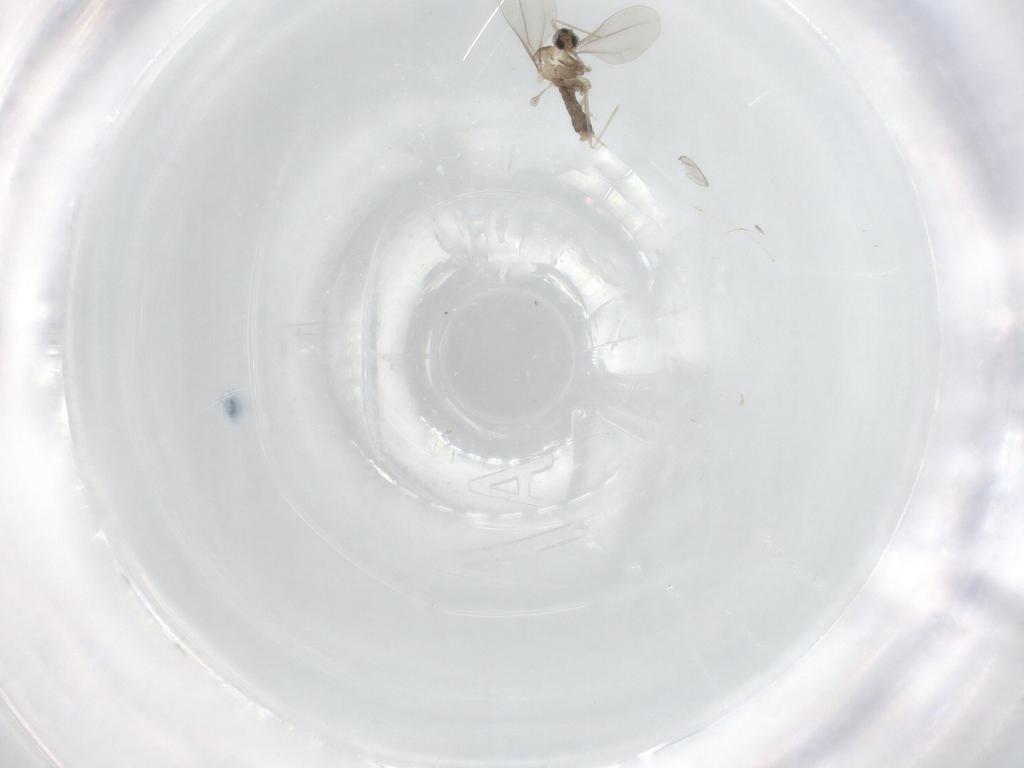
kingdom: Animalia
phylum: Arthropoda
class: Insecta
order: Diptera
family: Cecidomyiidae
